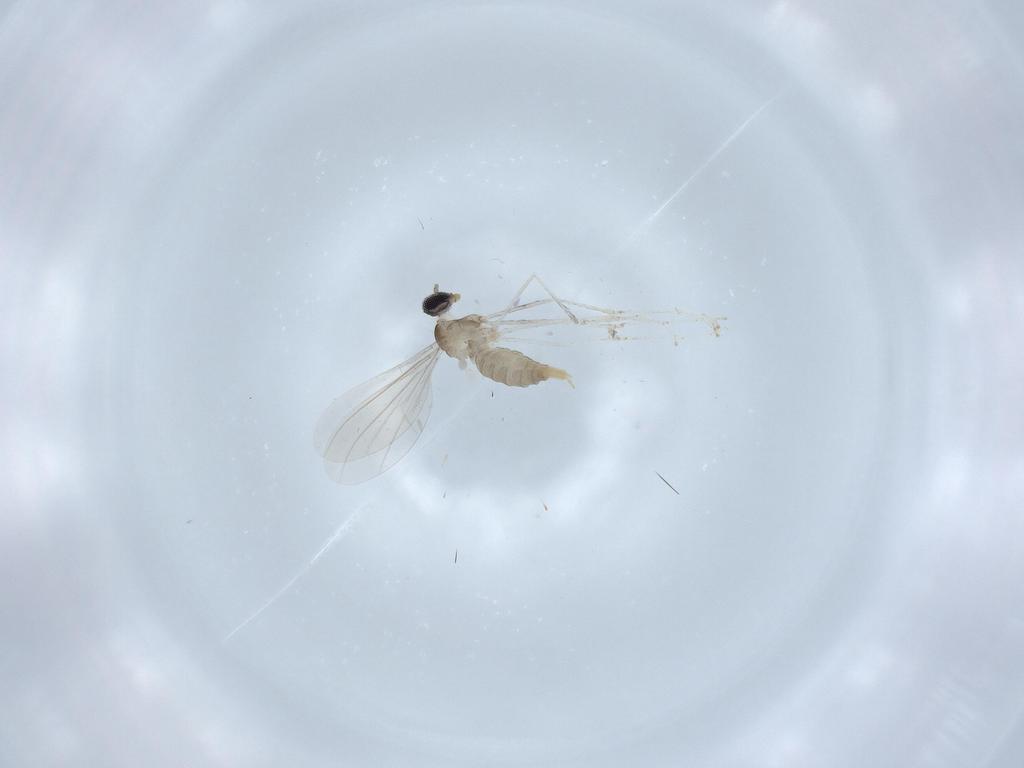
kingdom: Animalia
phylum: Arthropoda
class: Insecta
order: Diptera
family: Cecidomyiidae
